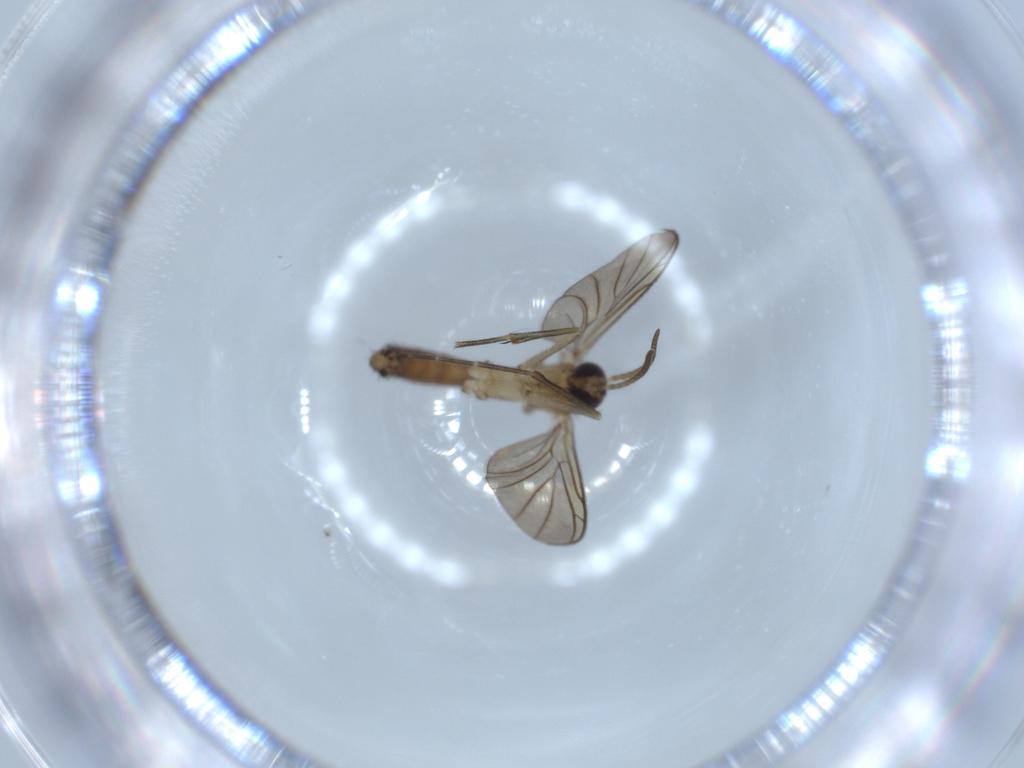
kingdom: Animalia
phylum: Arthropoda
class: Insecta
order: Diptera
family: Keroplatidae
